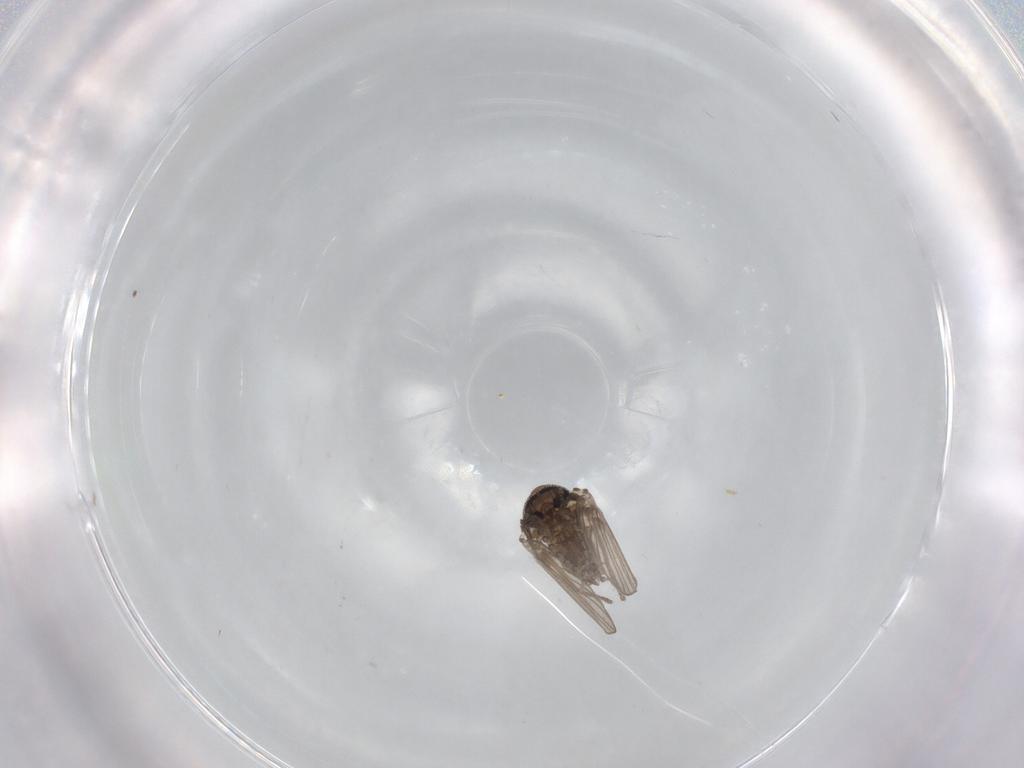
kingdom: Animalia
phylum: Arthropoda
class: Insecta
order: Diptera
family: Psychodidae
